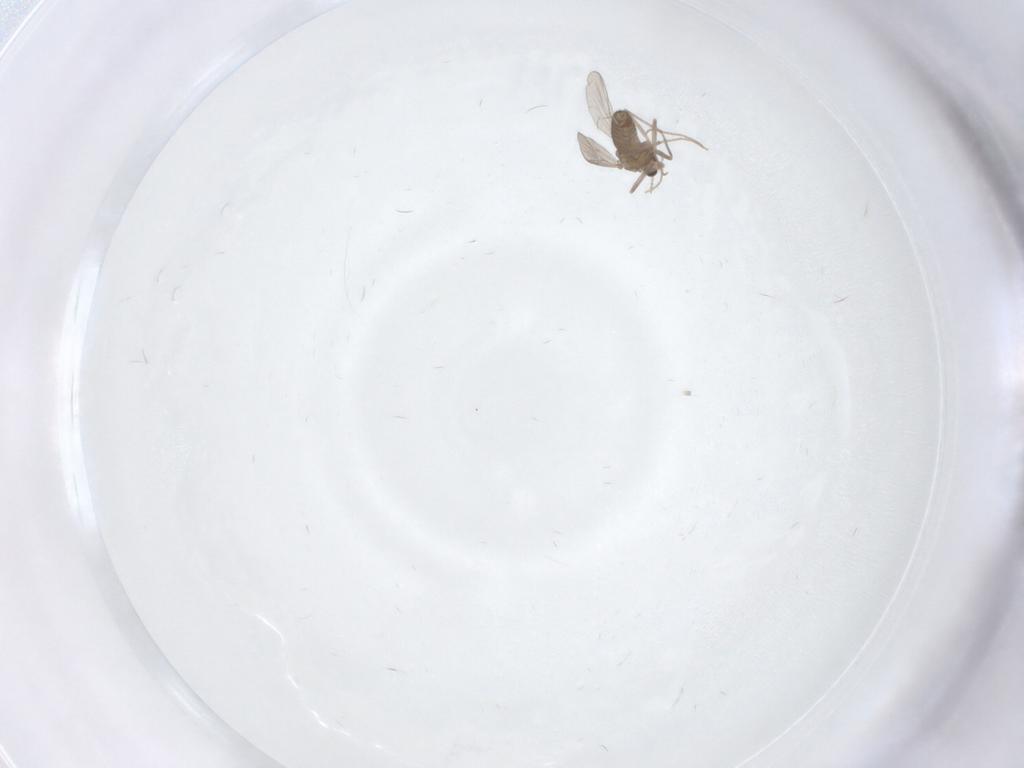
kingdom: Animalia
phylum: Arthropoda
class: Insecta
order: Diptera
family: Chironomidae
